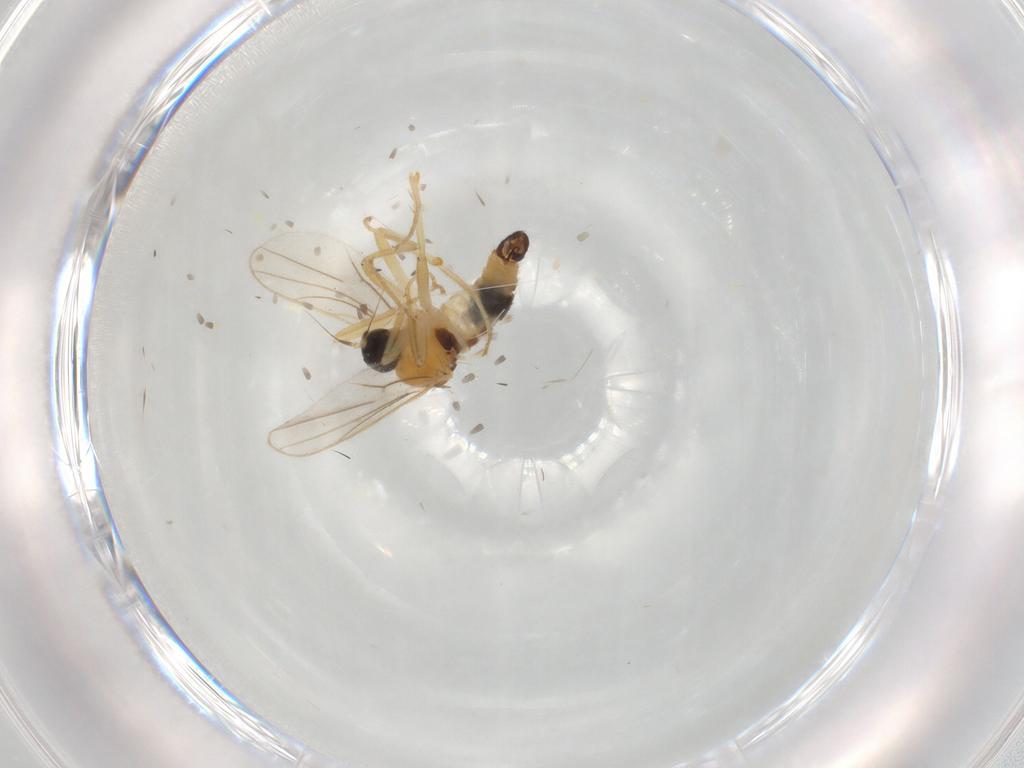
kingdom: Animalia
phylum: Arthropoda
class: Insecta
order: Diptera
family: Hybotidae
